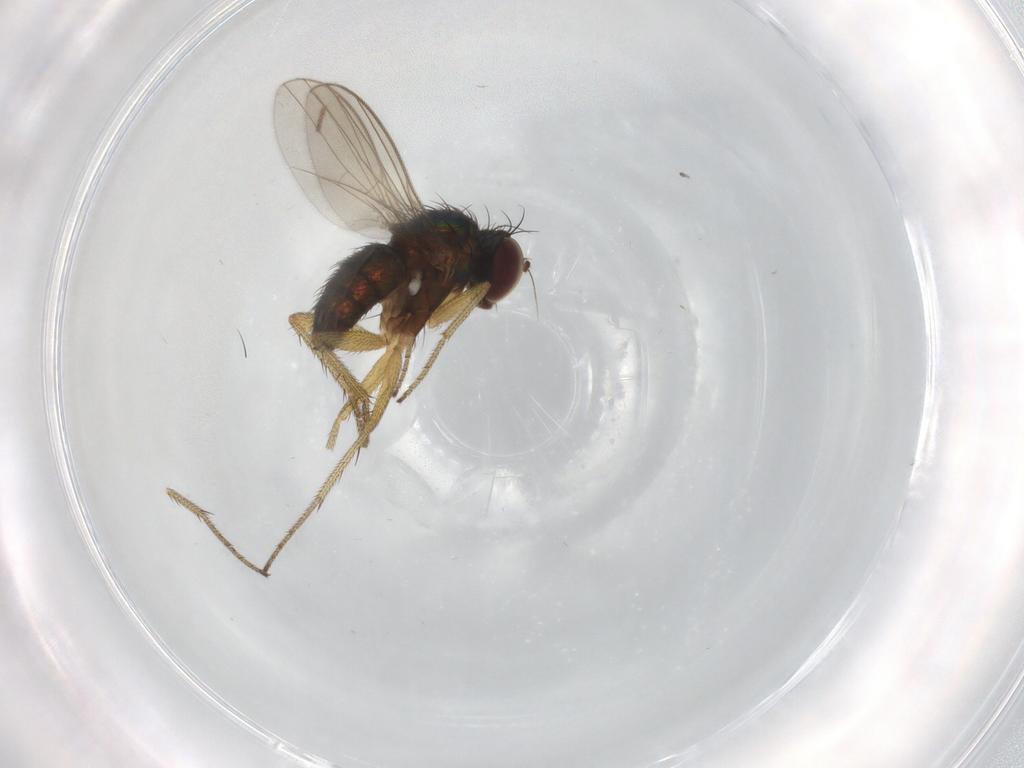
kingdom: Animalia
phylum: Arthropoda
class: Insecta
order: Diptera
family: Dolichopodidae
